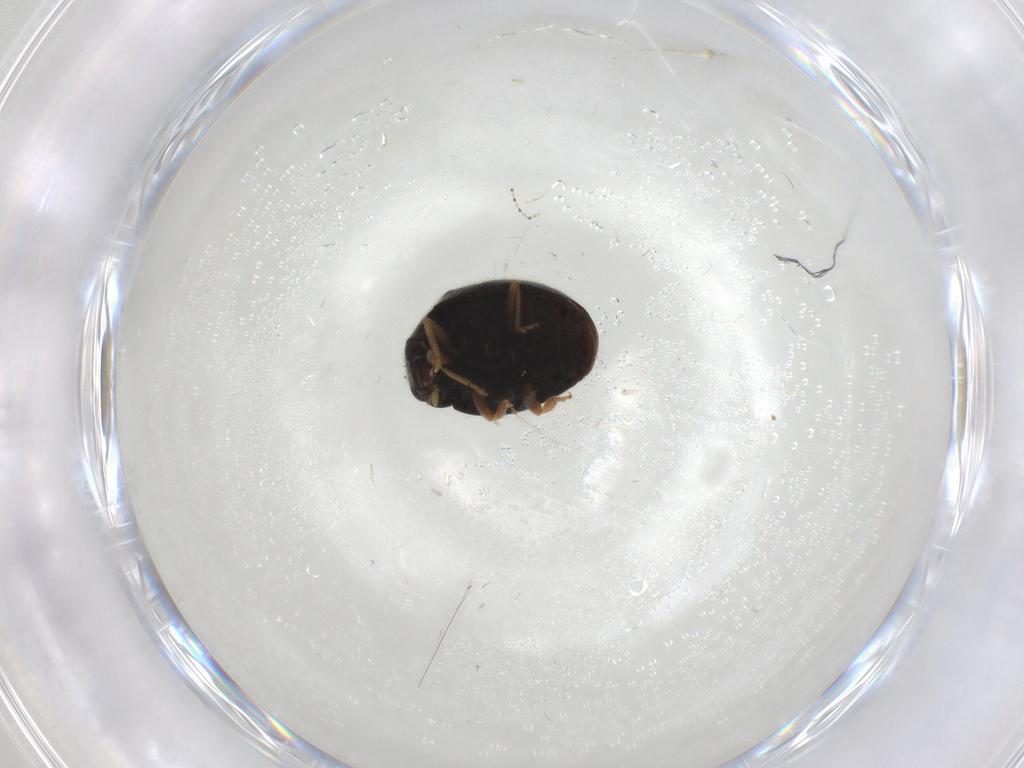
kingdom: Animalia
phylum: Arthropoda
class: Insecta
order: Coleoptera
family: Coccinellidae
